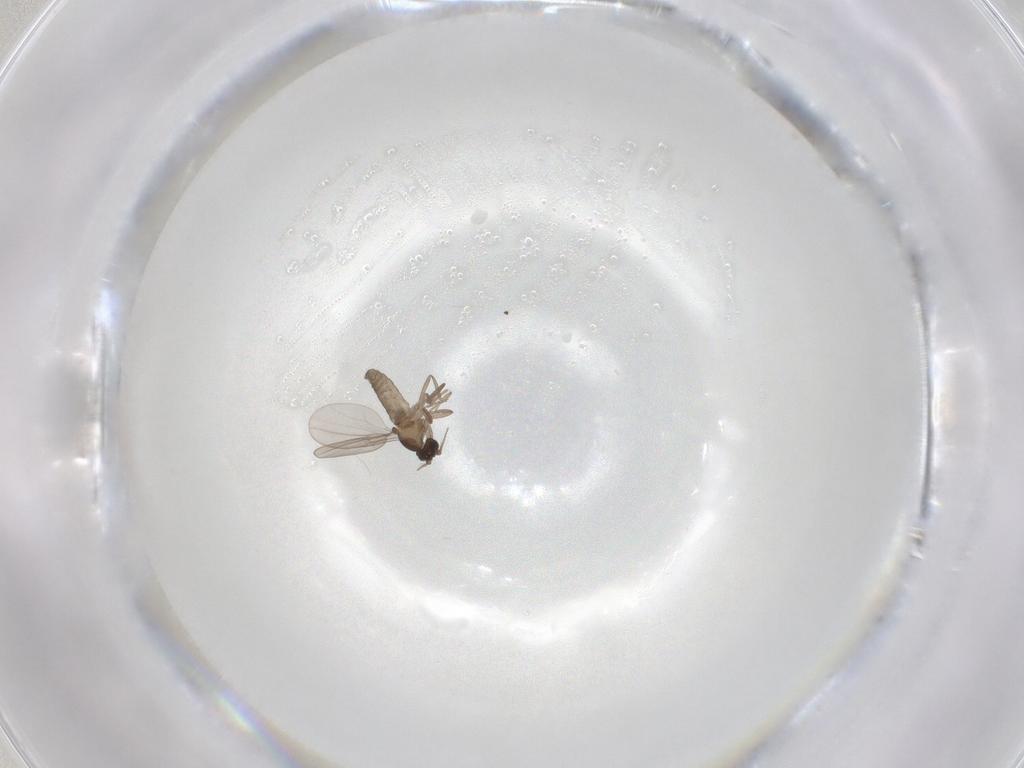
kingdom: Animalia
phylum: Arthropoda
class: Insecta
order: Diptera
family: Cecidomyiidae
